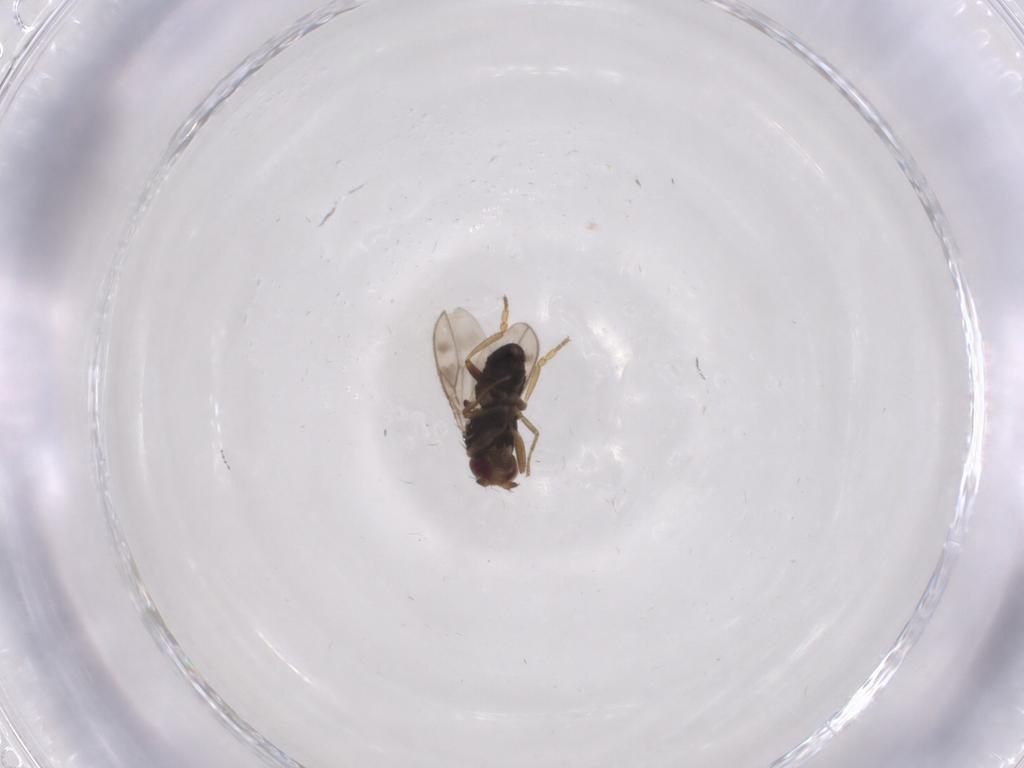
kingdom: Animalia
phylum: Arthropoda
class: Insecta
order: Diptera
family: Sphaeroceridae
